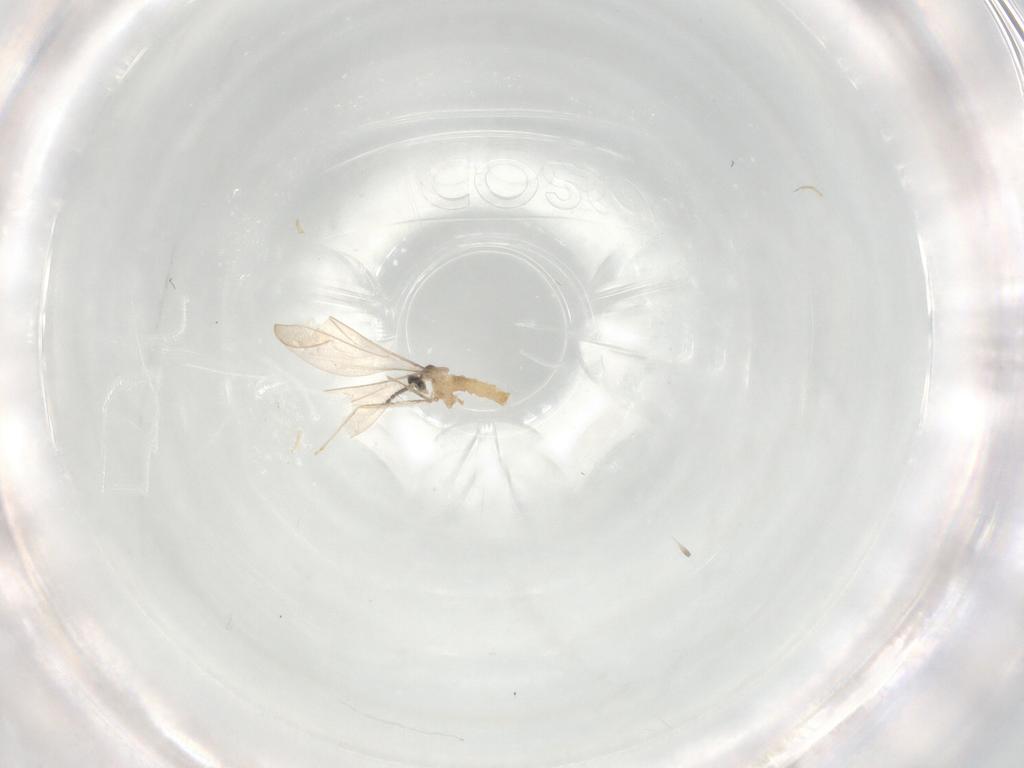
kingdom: Animalia
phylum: Arthropoda
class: Insecta
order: Diptera
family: Cecidomyiidae
